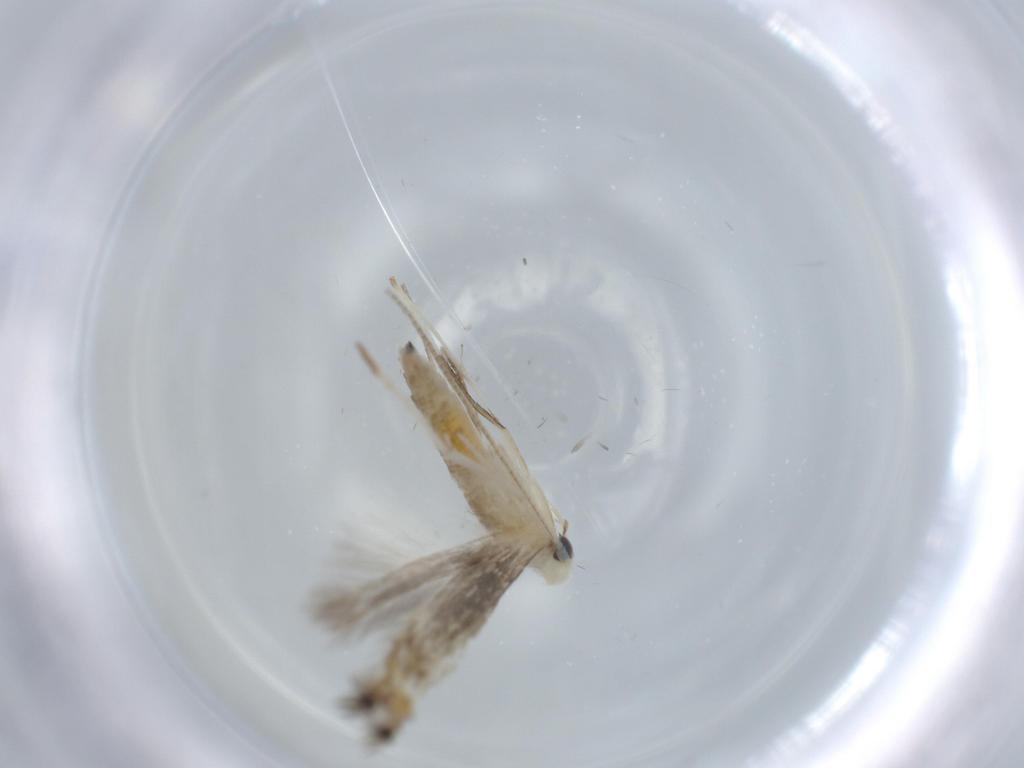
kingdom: Animalia
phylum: Arthropoda
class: Insecta
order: Lepidoptera
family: Gracillariidae
